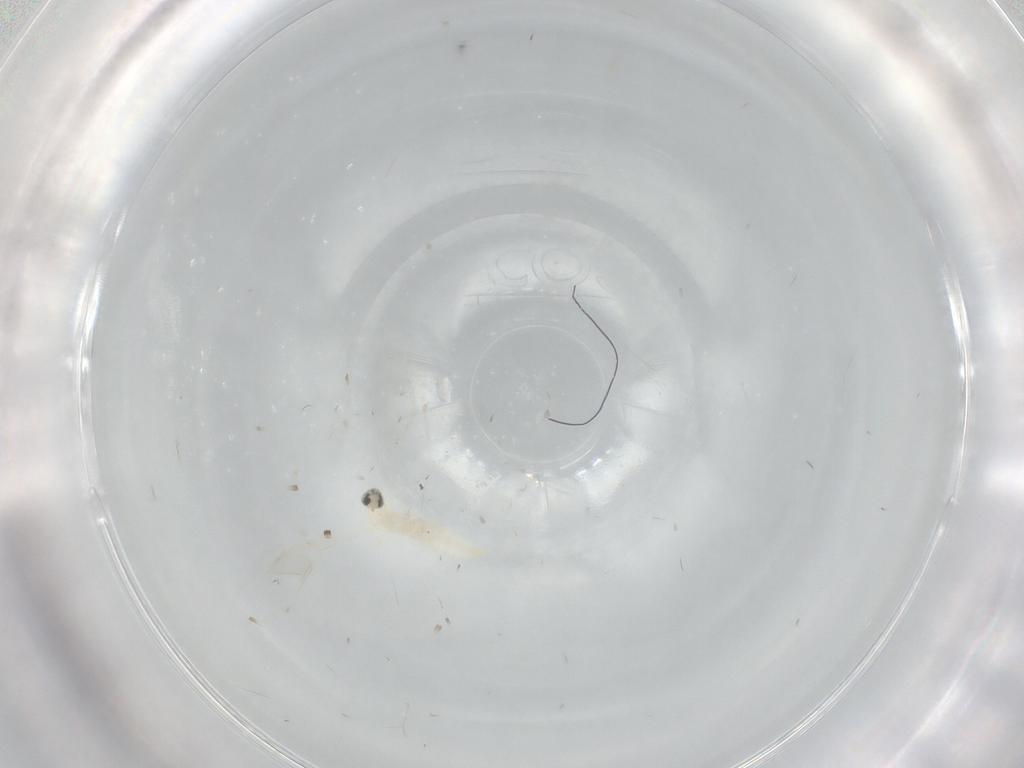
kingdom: Animalia
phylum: Arthropoda
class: Insecta
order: Diptera
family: Cecidomyiidae
